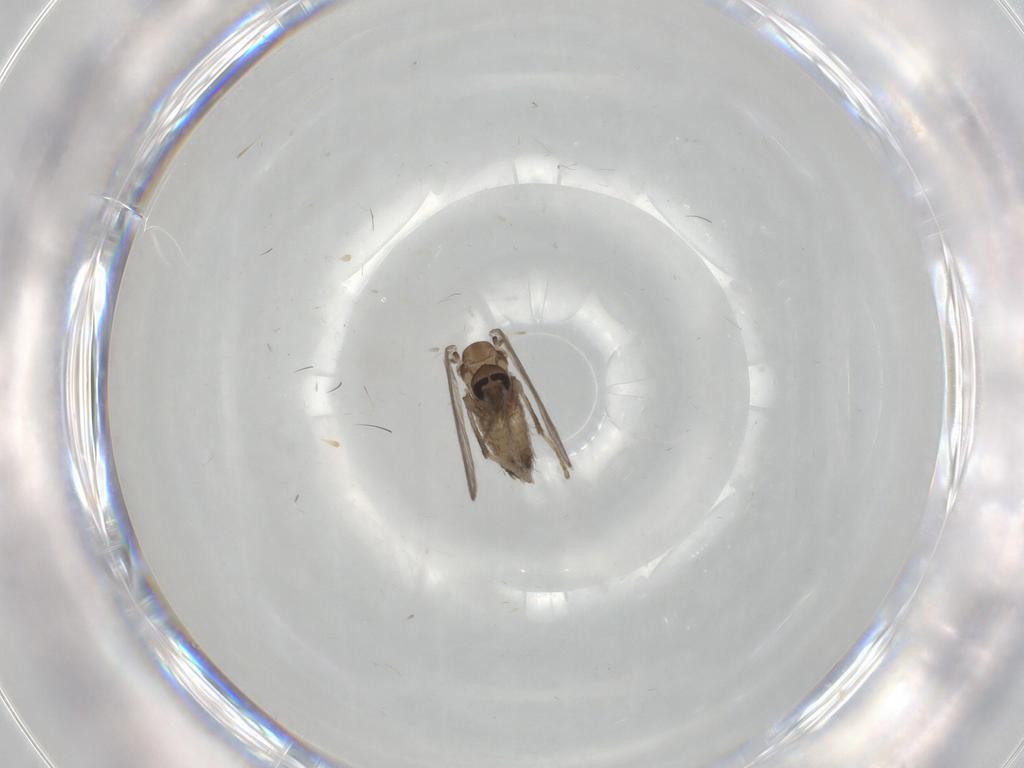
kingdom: Animalia
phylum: Arthropoda
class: Insecta
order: Diptera
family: Psychodidae
